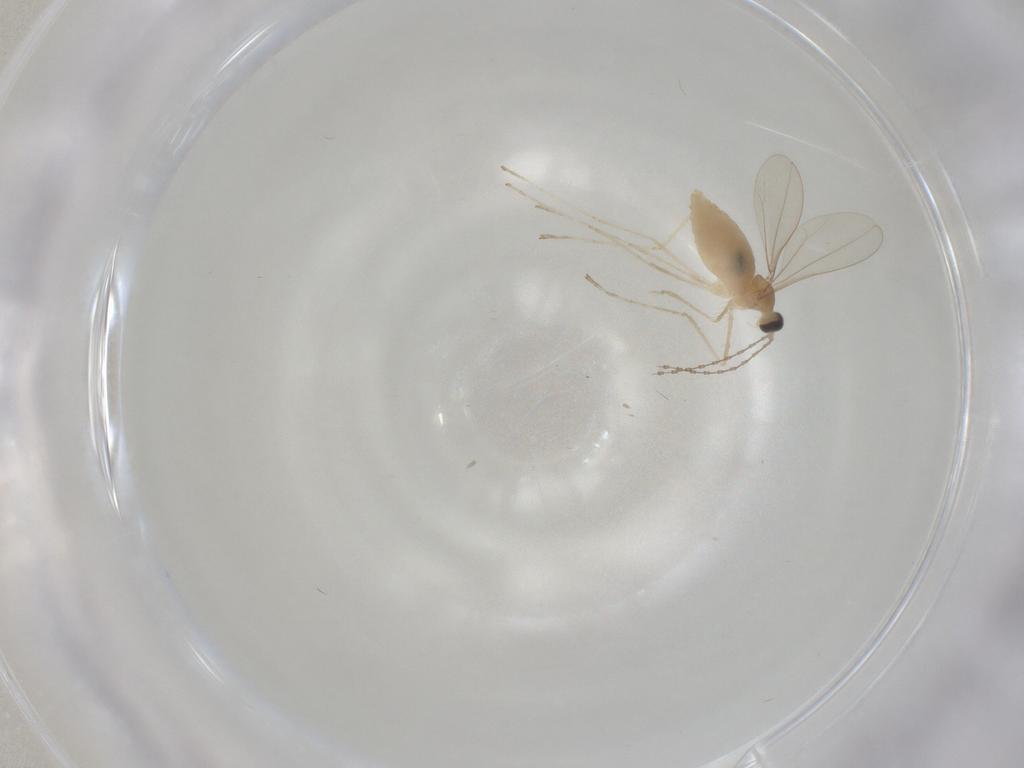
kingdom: Animalia
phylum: Arthropoda
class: Insecta
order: Diptera
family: Cecidomyiidae
